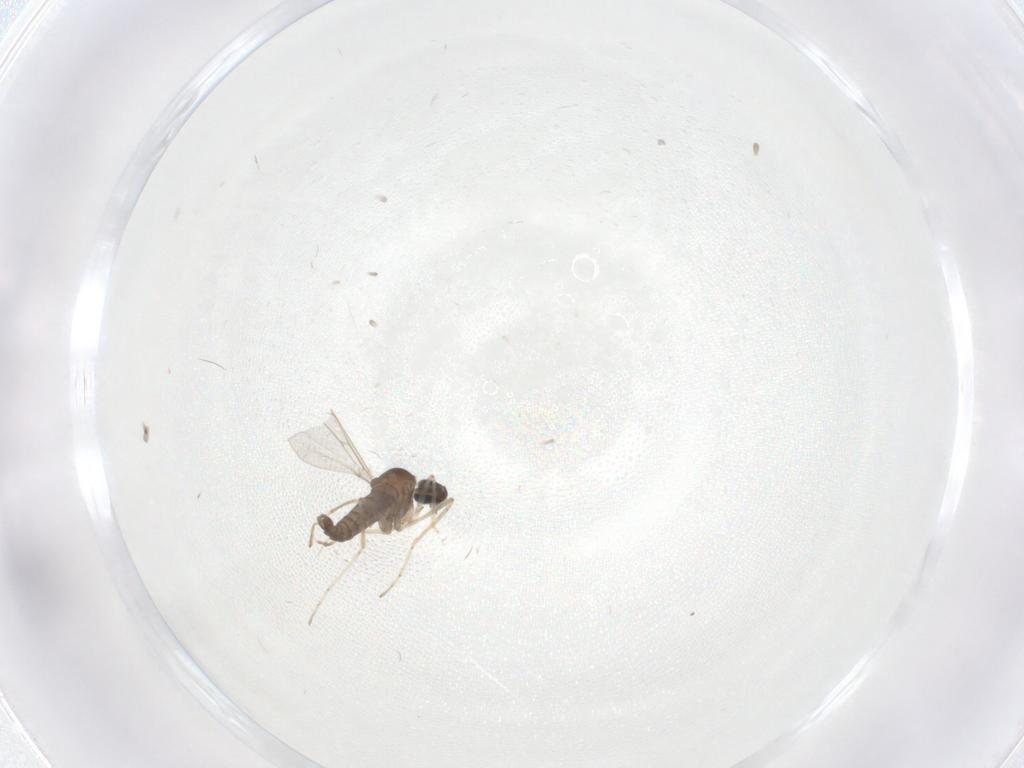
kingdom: Animalia
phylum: Arthropoda
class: Insecta
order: Diptera
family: Cecidomyiidae
